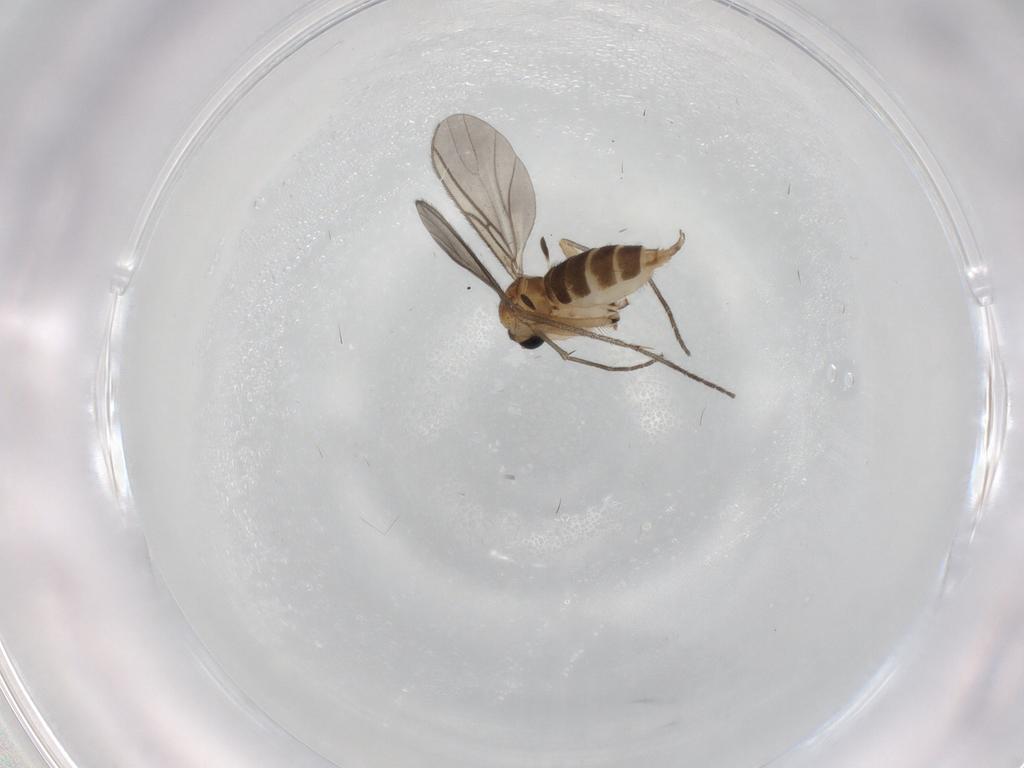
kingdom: Animalia
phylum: Arthropoda
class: Insecta
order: Diptera
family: Sciaridae
